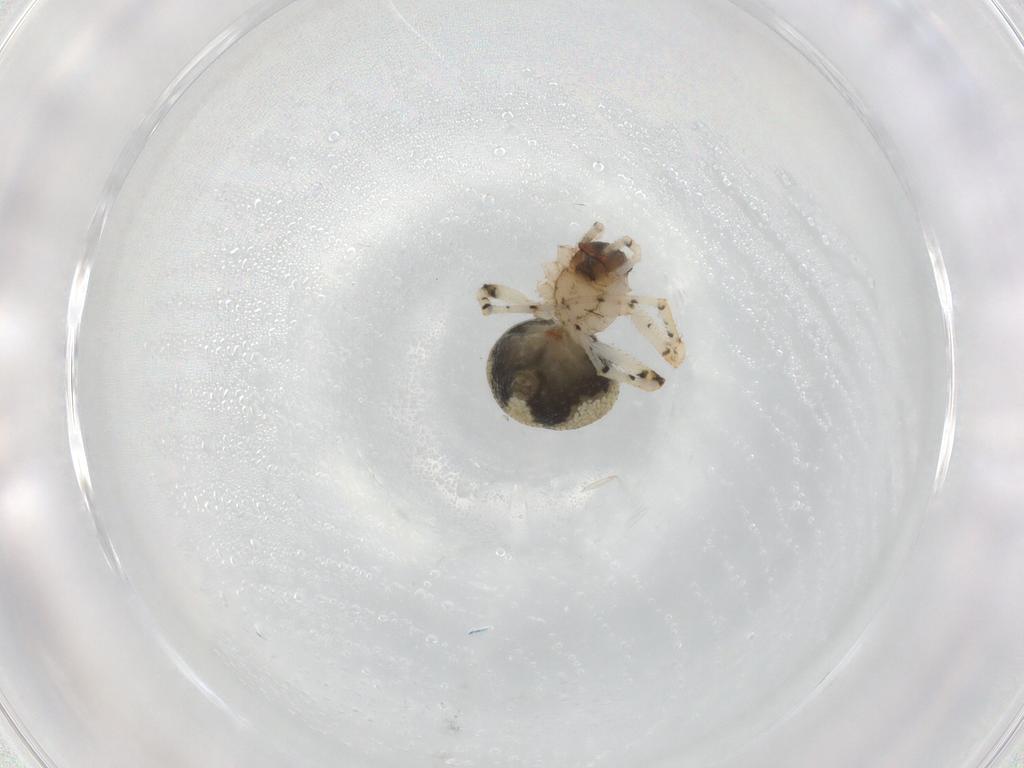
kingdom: Animalia
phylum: Arthropoda
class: Arachnida
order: Araneae
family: Theridiidae
